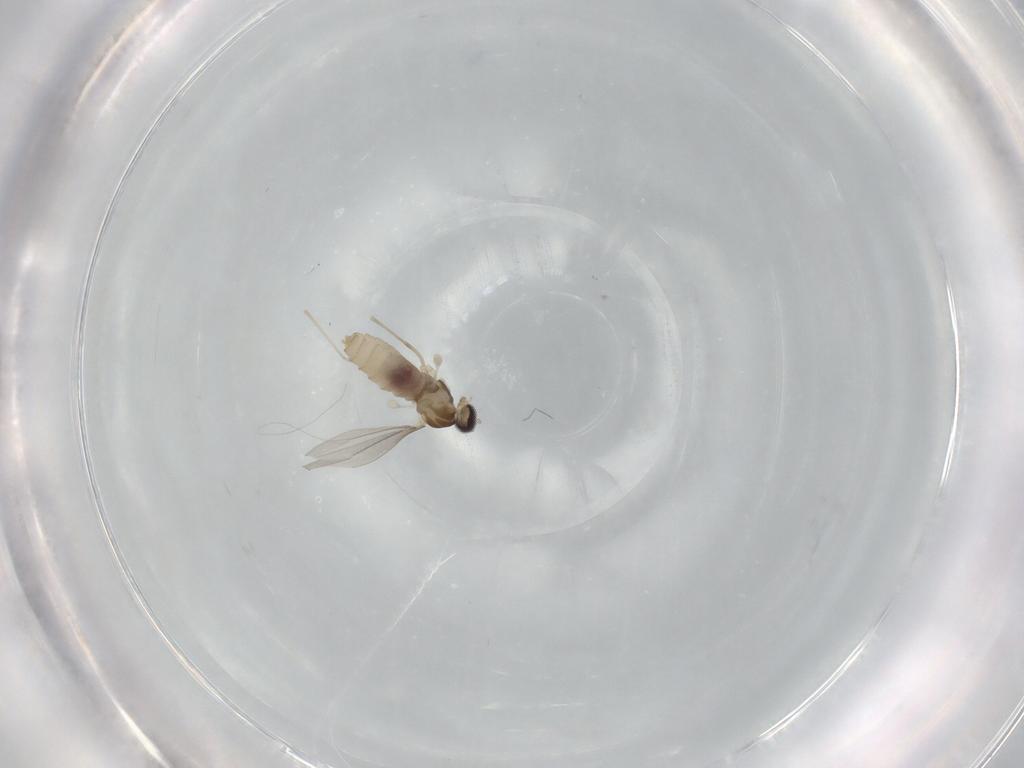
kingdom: Animalia
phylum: Arthropoda
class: Insecta
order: Diptera
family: Cecidomyiidae
